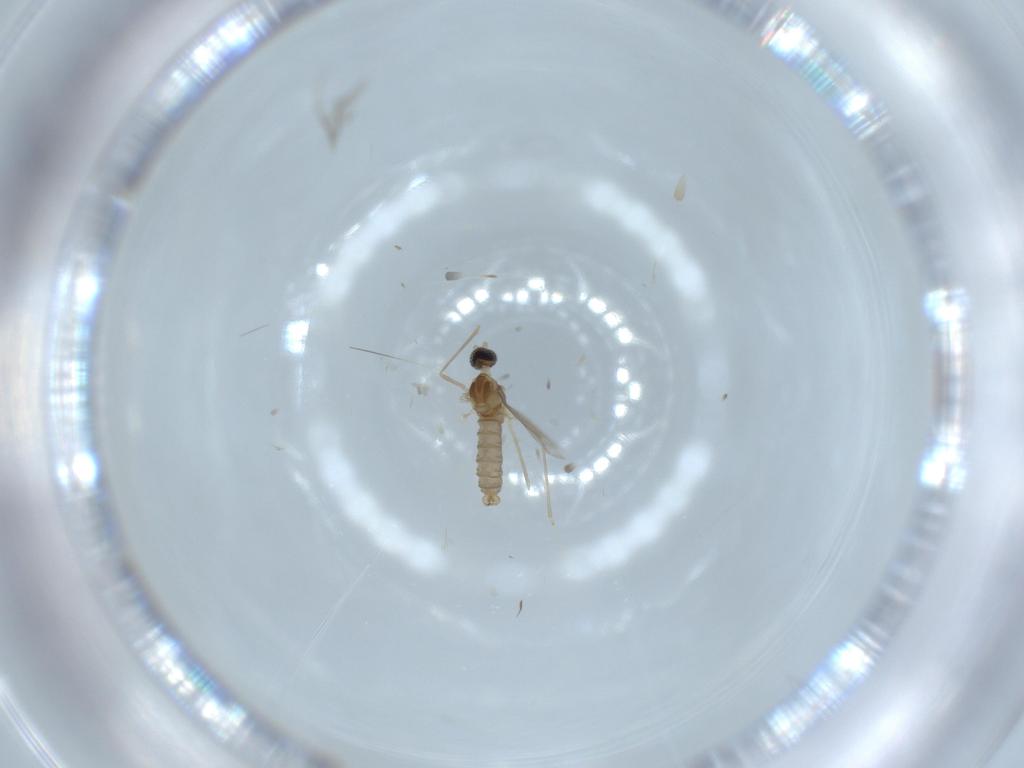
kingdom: Animalia
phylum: Arthropoda
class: Insecta
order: Diptera
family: Cecidomyiidae
